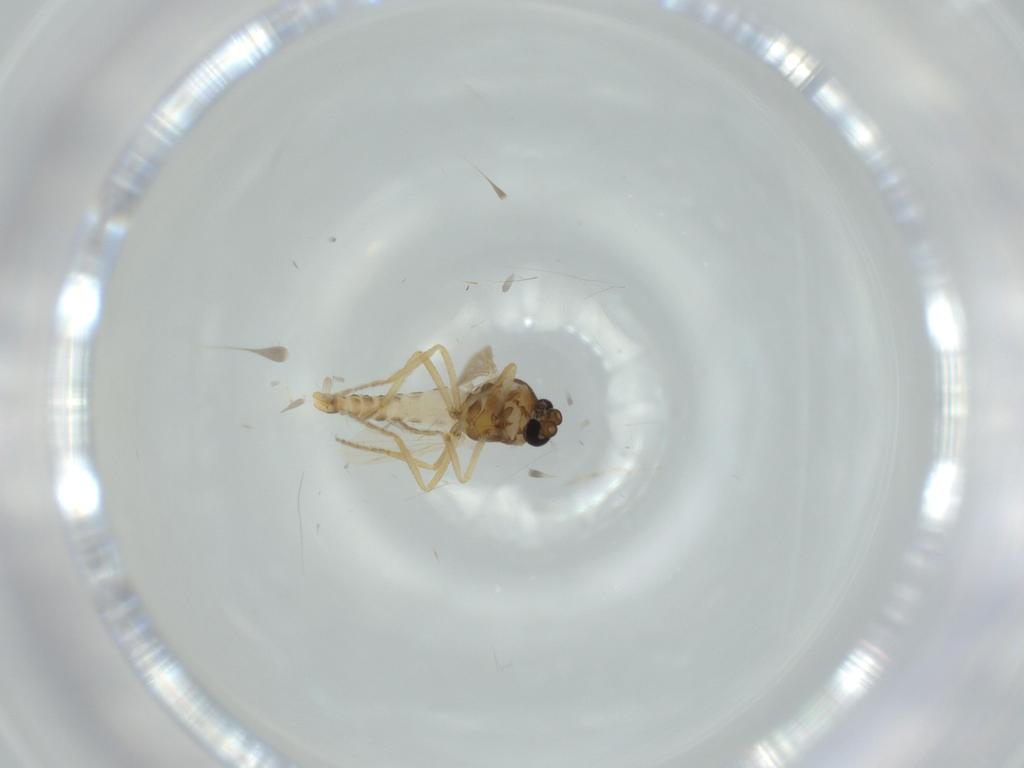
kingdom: Animalia
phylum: Arthropoda
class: Insecta
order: Diptera
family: Ceratopogonidae
